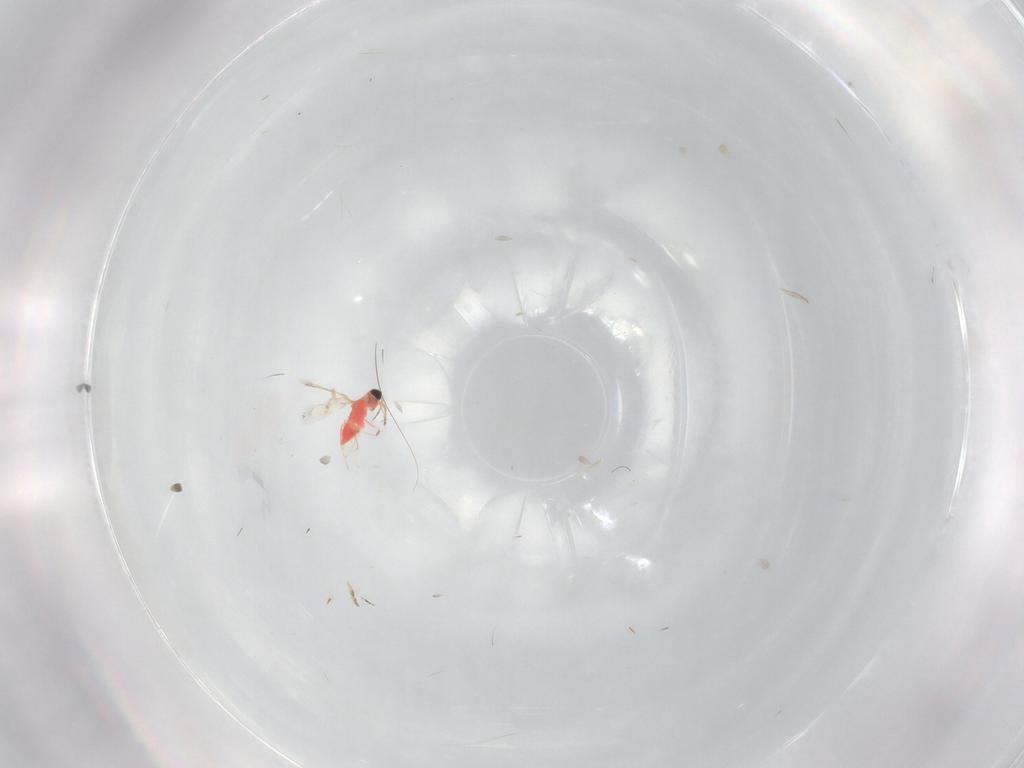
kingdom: Animalia
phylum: Arthropoda
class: Insecta
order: Hymenoptera
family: Trichogrammatidae
